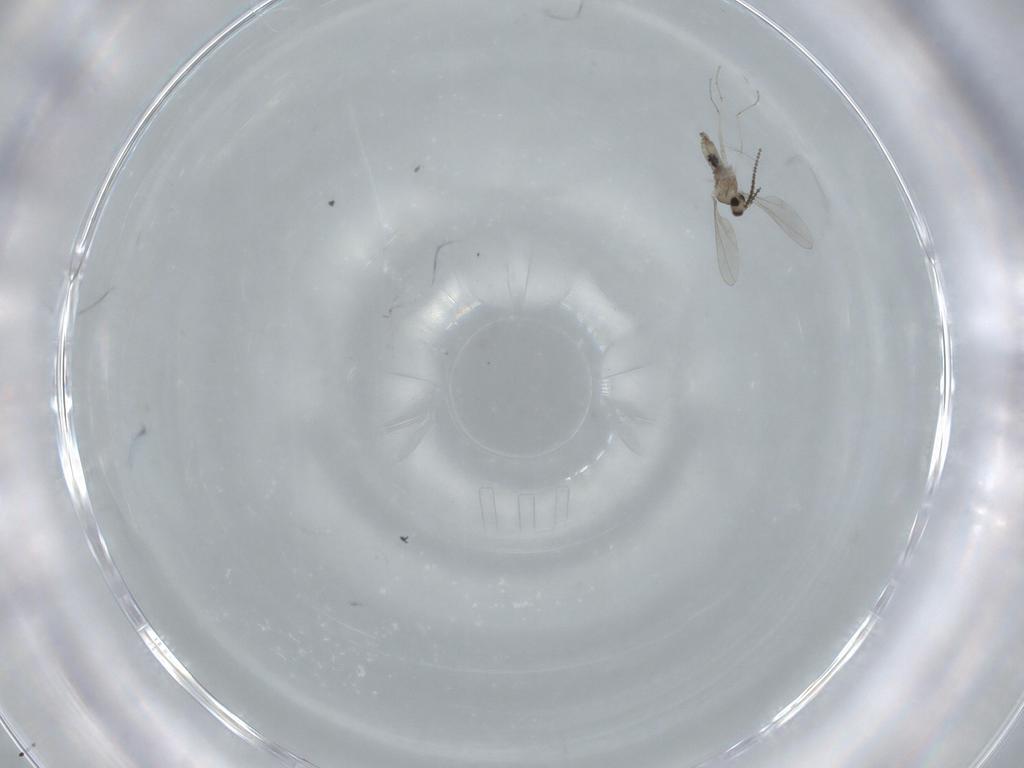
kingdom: Animalia
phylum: Arthropoda
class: Insecta
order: Diptera
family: Cecidomyiidae
